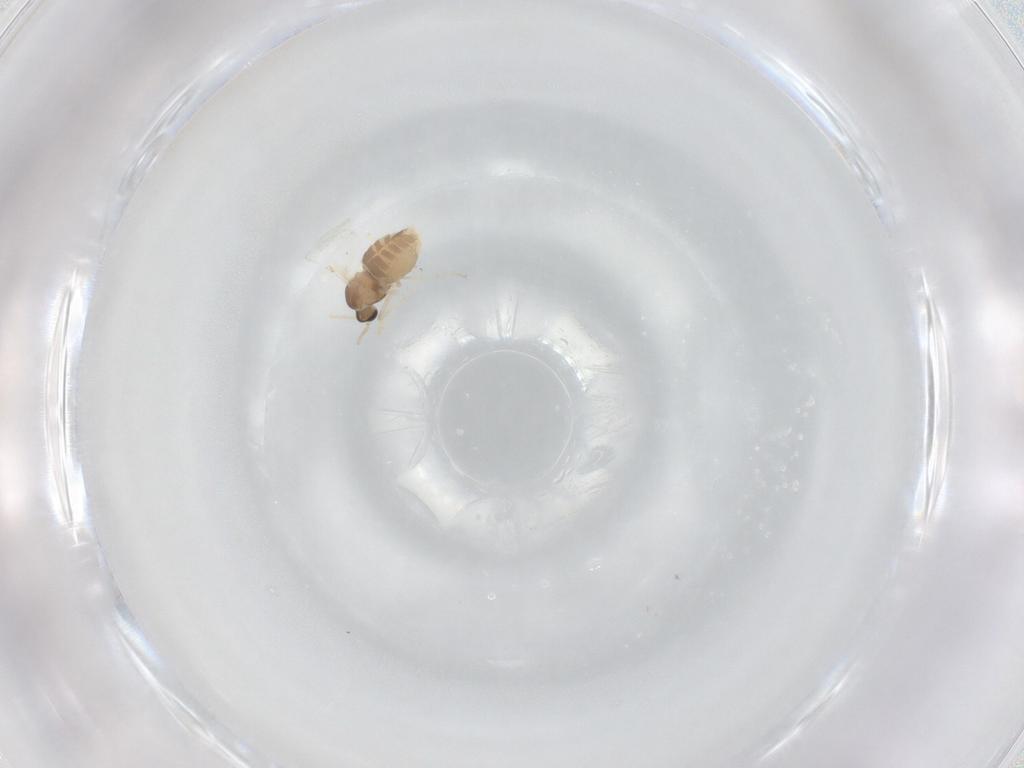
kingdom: Animalia
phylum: Arthropoda
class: Insecta
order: Diptera
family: Cecidomyiidae
